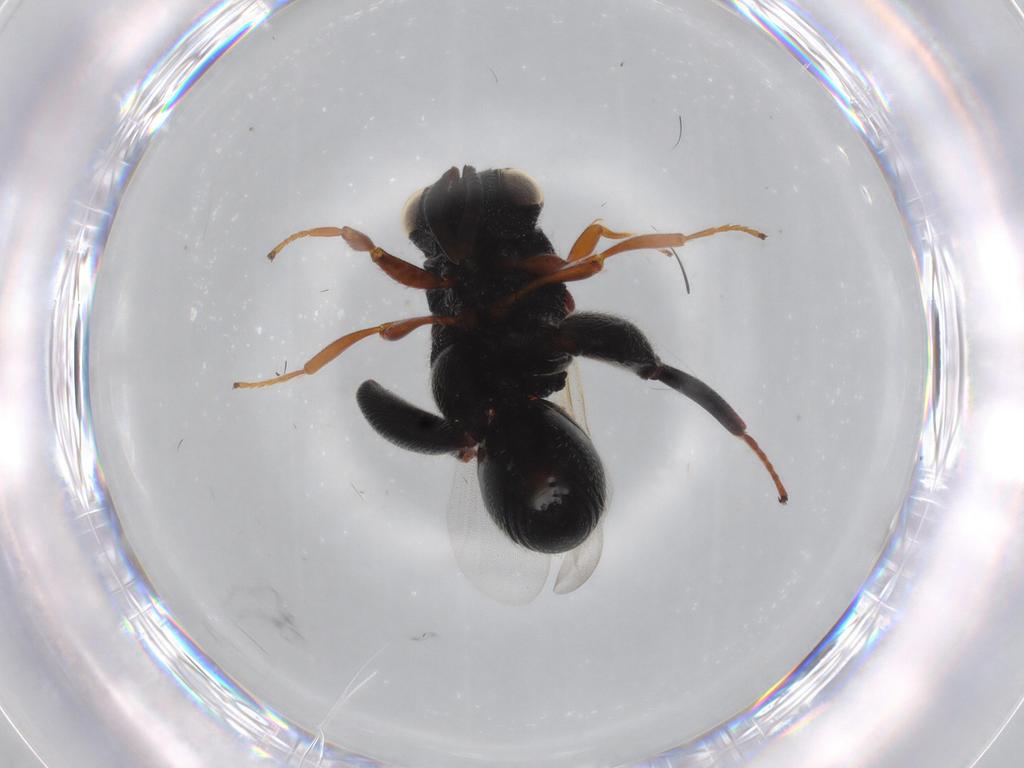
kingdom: Animalia
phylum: Arthropoda
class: Insecta
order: Hymenoptera
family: Chalcididae
